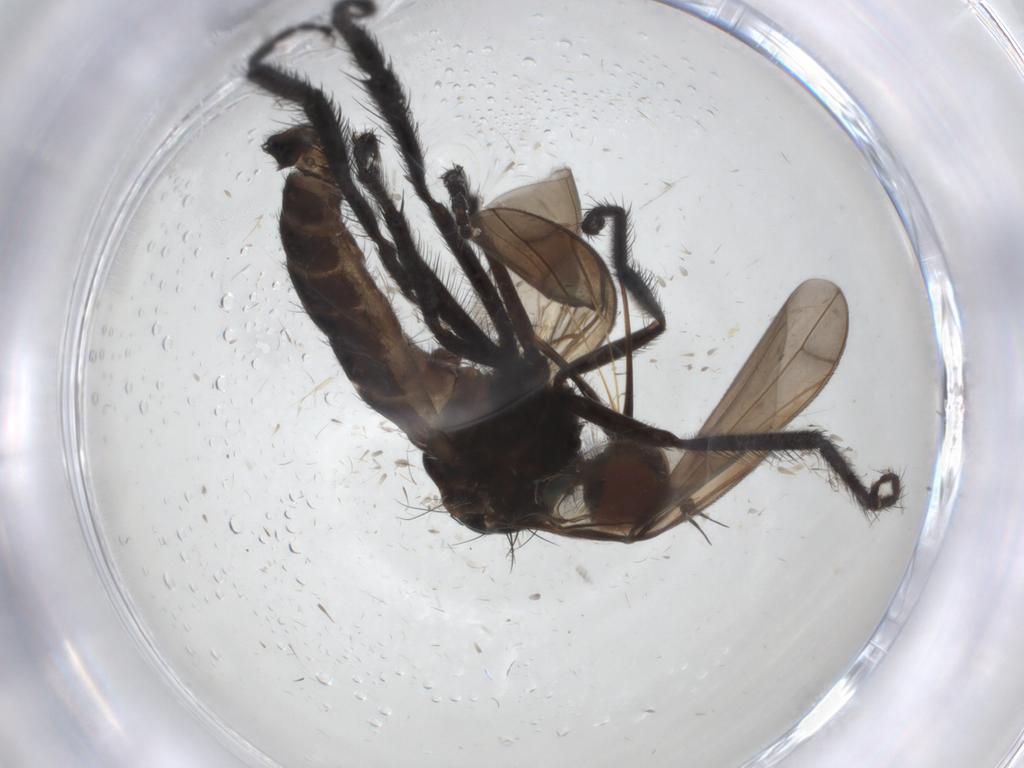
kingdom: Animalia
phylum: Arthropoda
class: Insecta
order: Diptera
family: Empididae
